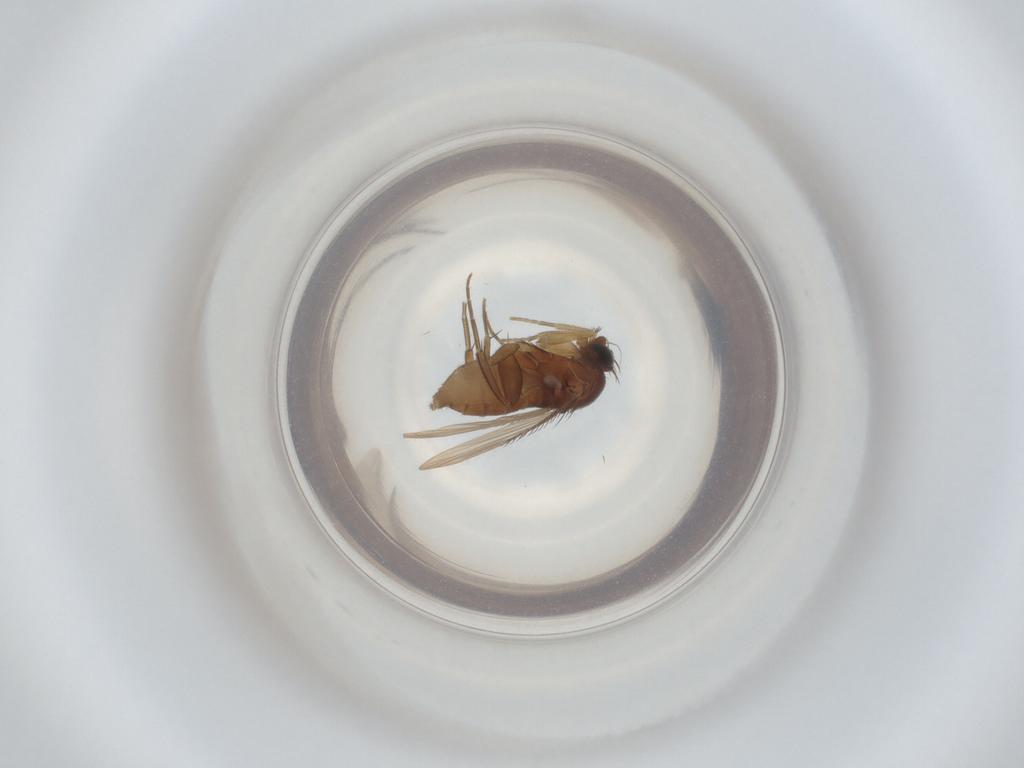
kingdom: Animalia
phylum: Arthropoda
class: Insecta
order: Diptera
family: Phoridae
